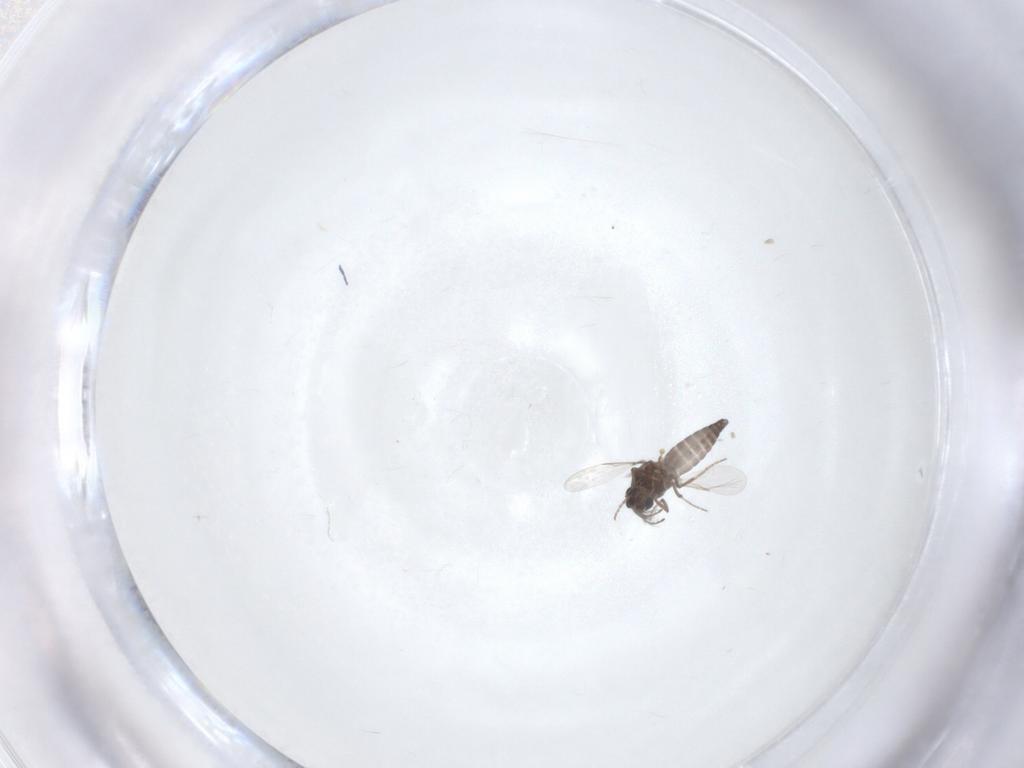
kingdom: Animalia
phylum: Arthropoda
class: Insecta
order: Diptera
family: Ceratopogonidae
